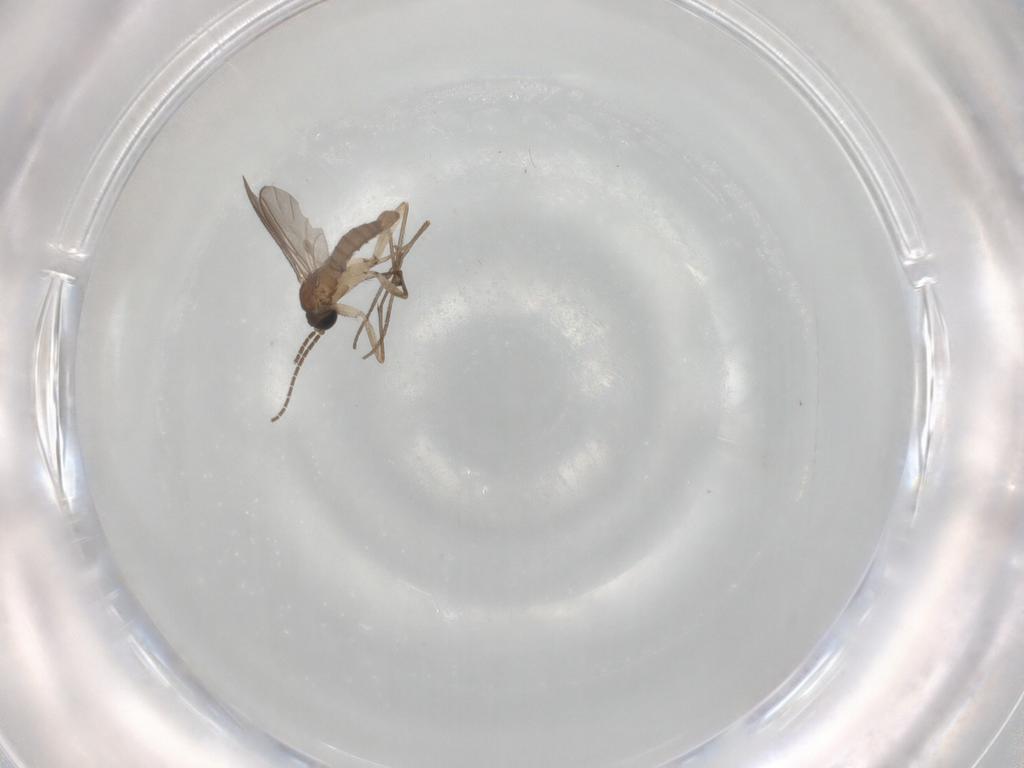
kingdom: Animalia
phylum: Arthropoda
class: Insecta
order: Diptera
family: Sciaridae
